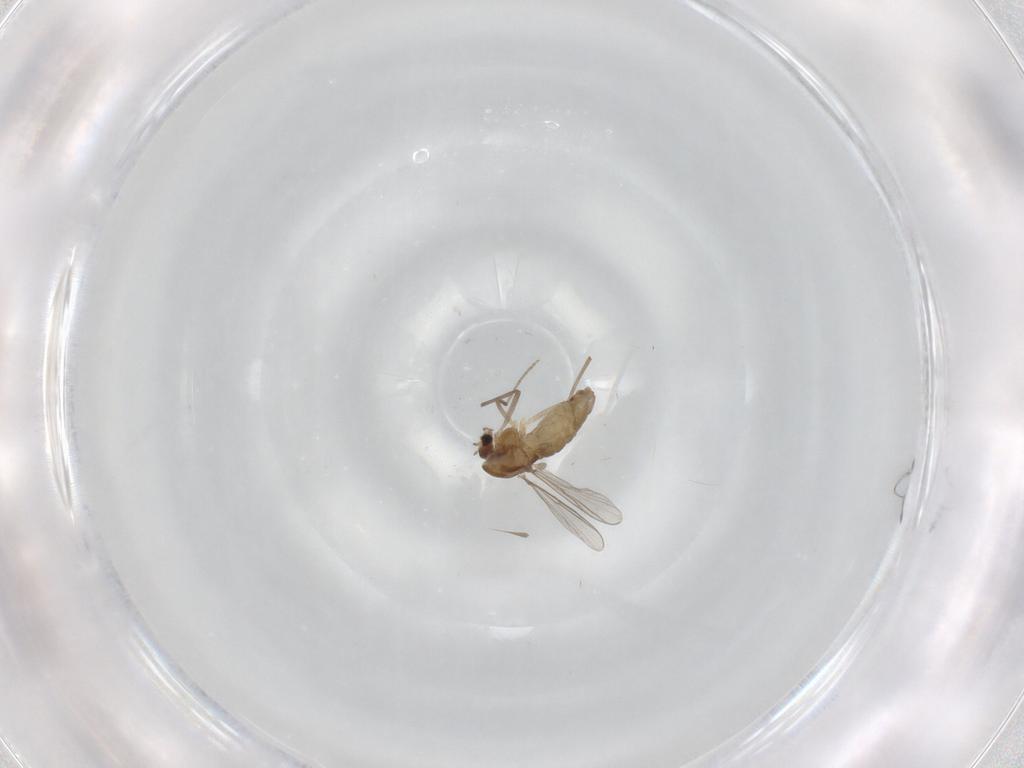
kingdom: Animalia
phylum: Arthropoda
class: Insecta
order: Diptera
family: Chironomidae
